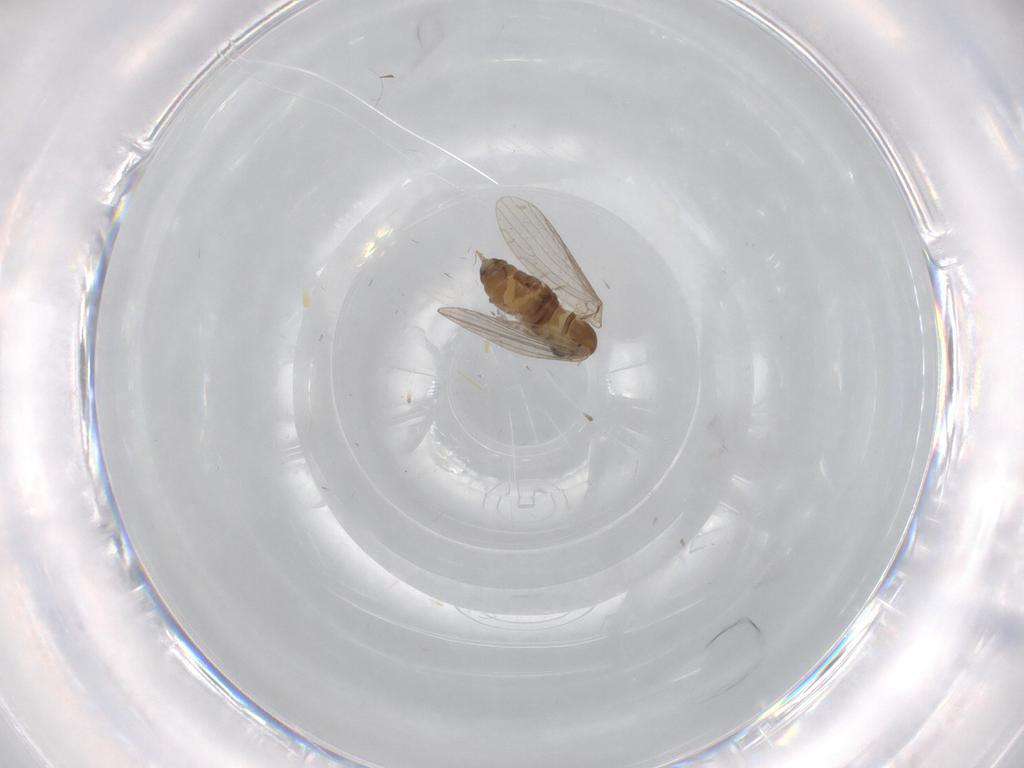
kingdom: Animalia
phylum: Arthropoda
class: Insecta
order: Diptera
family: Psychodidae
